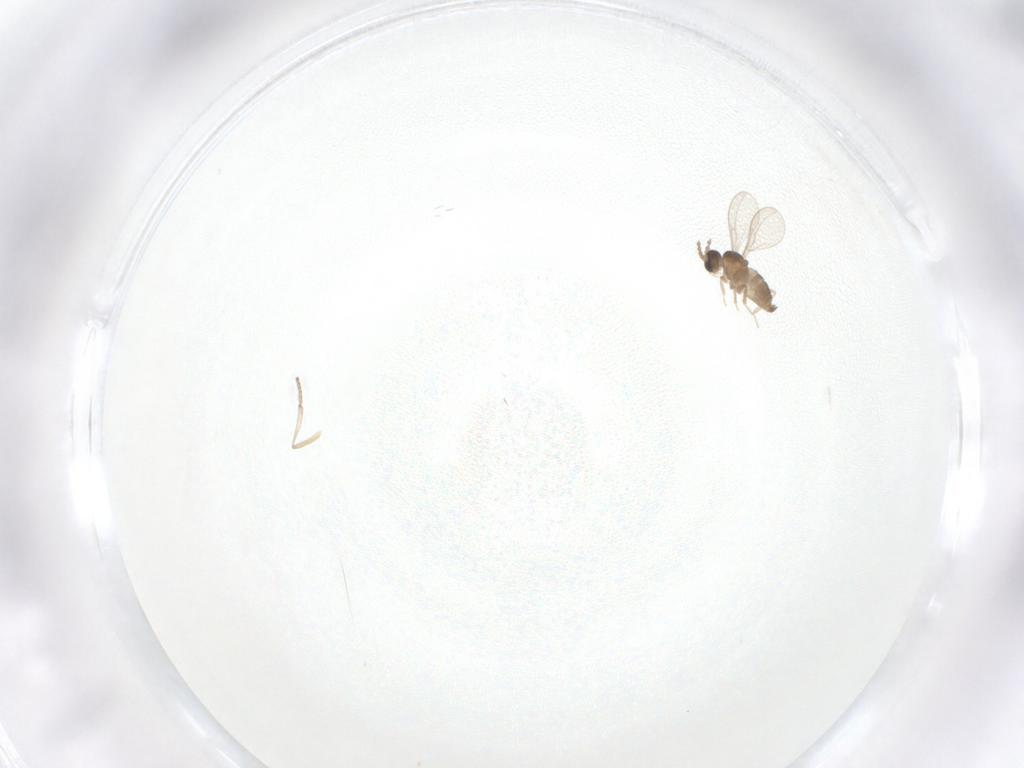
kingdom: Animalia
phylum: Arthropoda
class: Insecta
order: Diptera
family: Psychodidae
